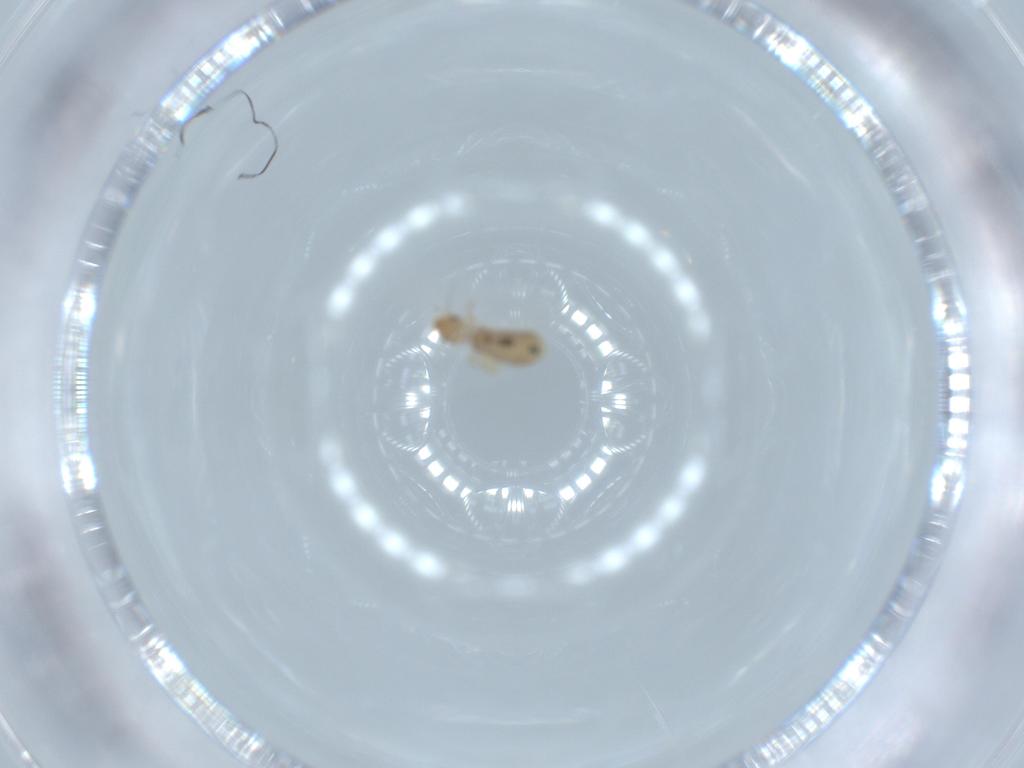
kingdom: Animalia
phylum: Arthropoda
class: Insecta
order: Psocodea
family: Liposcelididae
